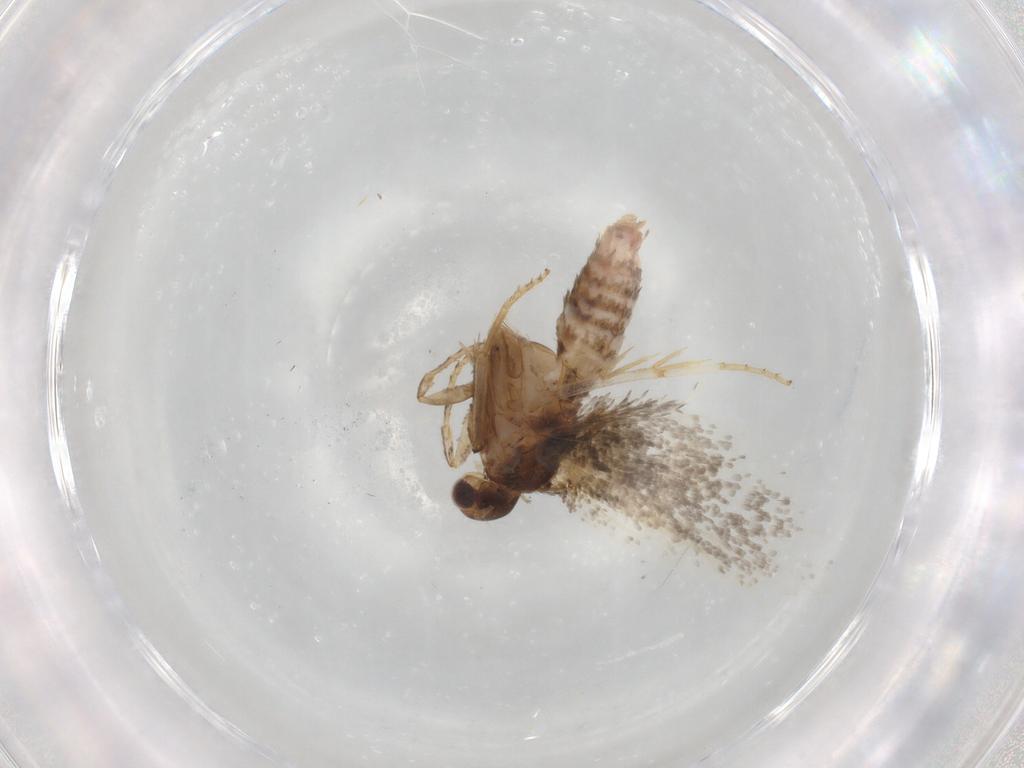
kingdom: Animalia
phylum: Arthropoda
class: Insecta
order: Lepidoptera
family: Tortricidae
